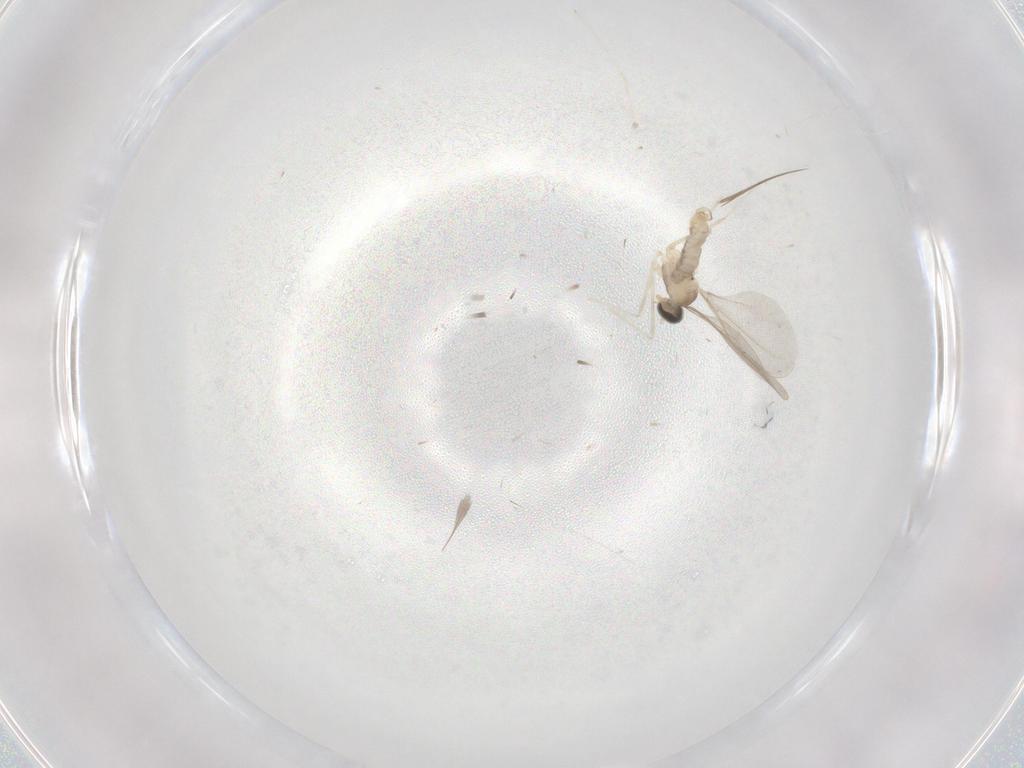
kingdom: Animalia
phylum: Arthropoda
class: Insecta
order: Diptera
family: Cecidomyiidae
